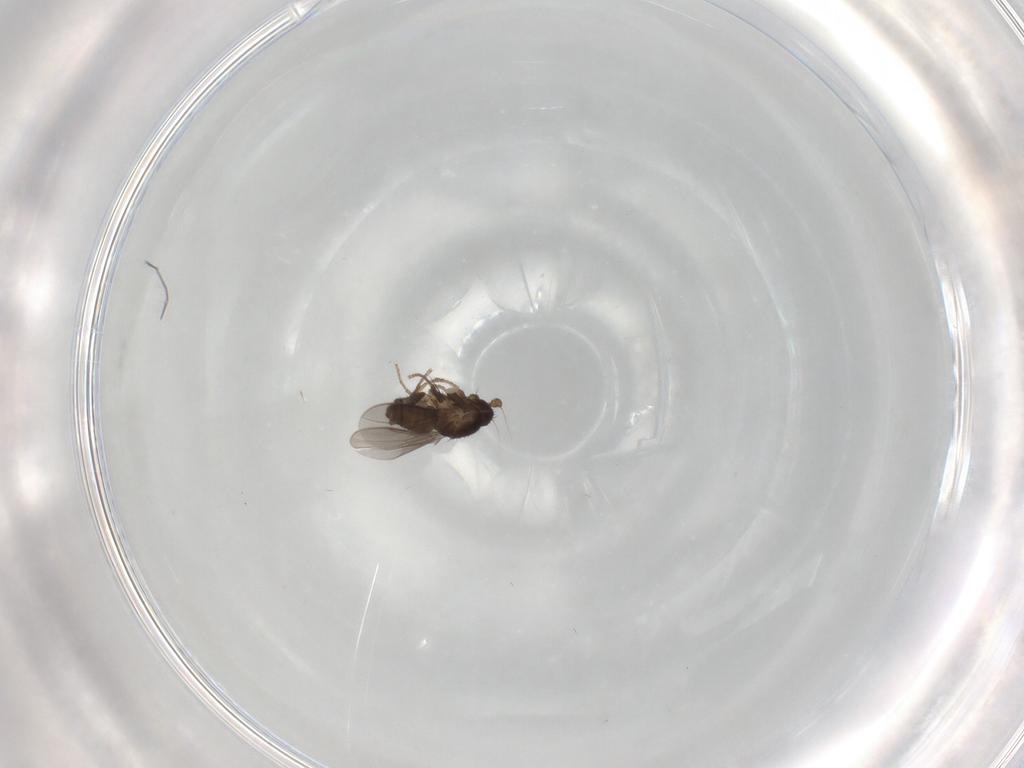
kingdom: Animalia
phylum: Arthropoda
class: Insecta
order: Diptera
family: Sphaeroceridae
